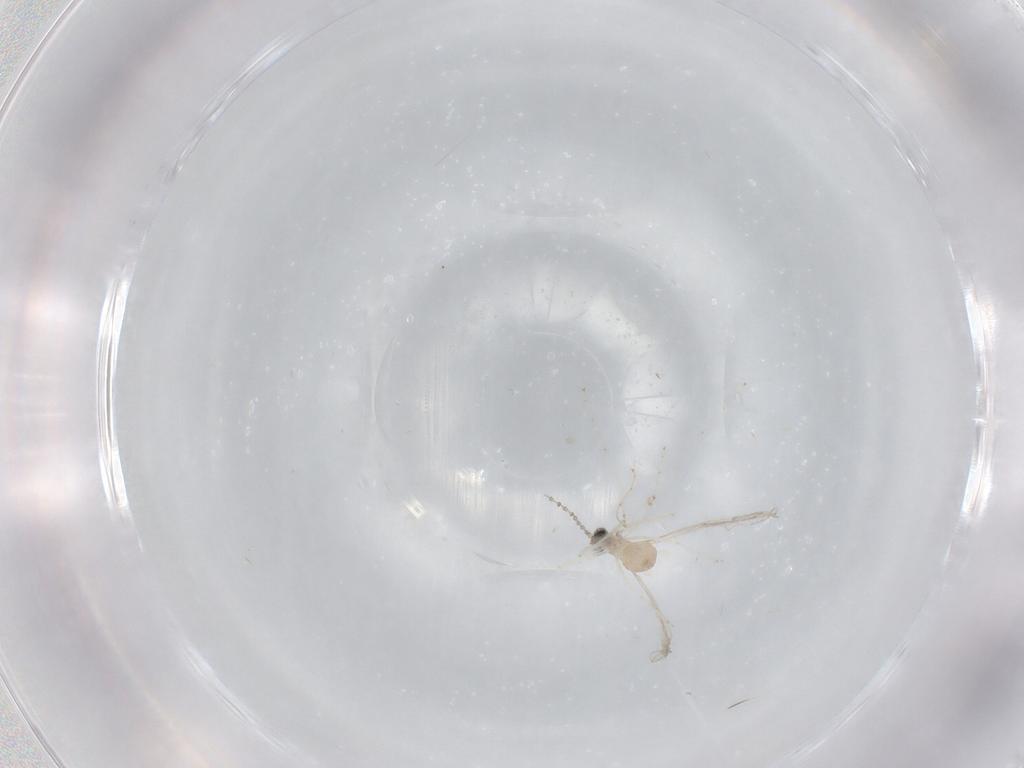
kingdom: Animalia
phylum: Arthropoda
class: Insecta
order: Diptera
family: Cecidomyiidae
